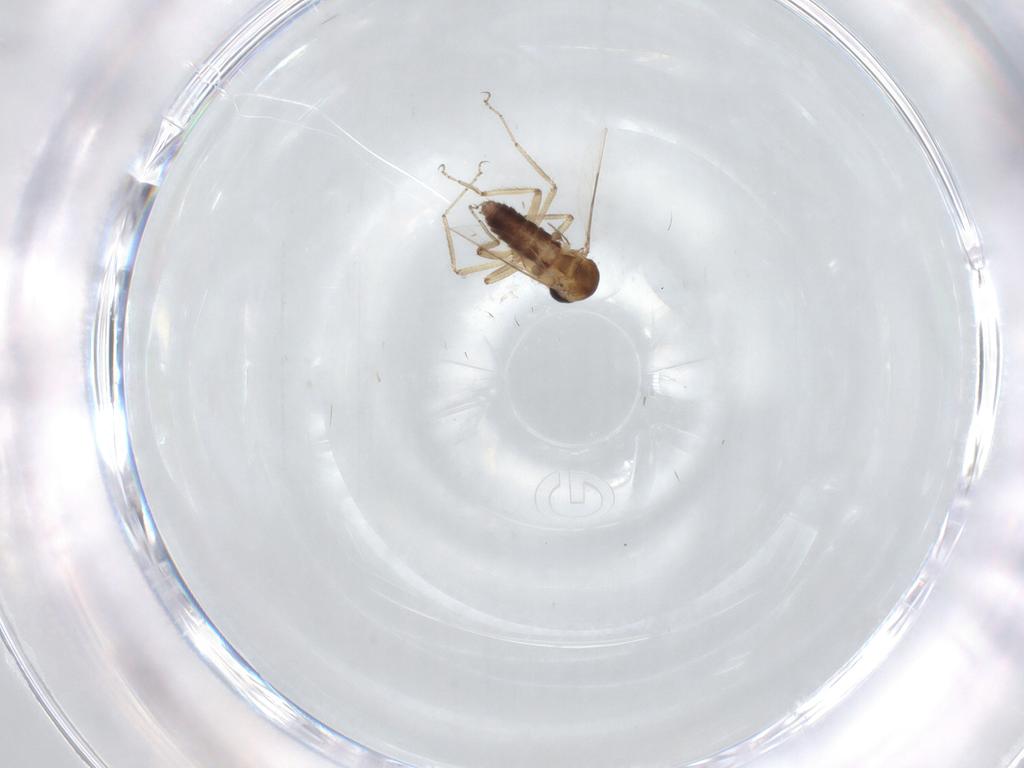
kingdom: Animalia
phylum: Arthropoda
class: Insecta
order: Diptera
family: Ceratopogonidae
